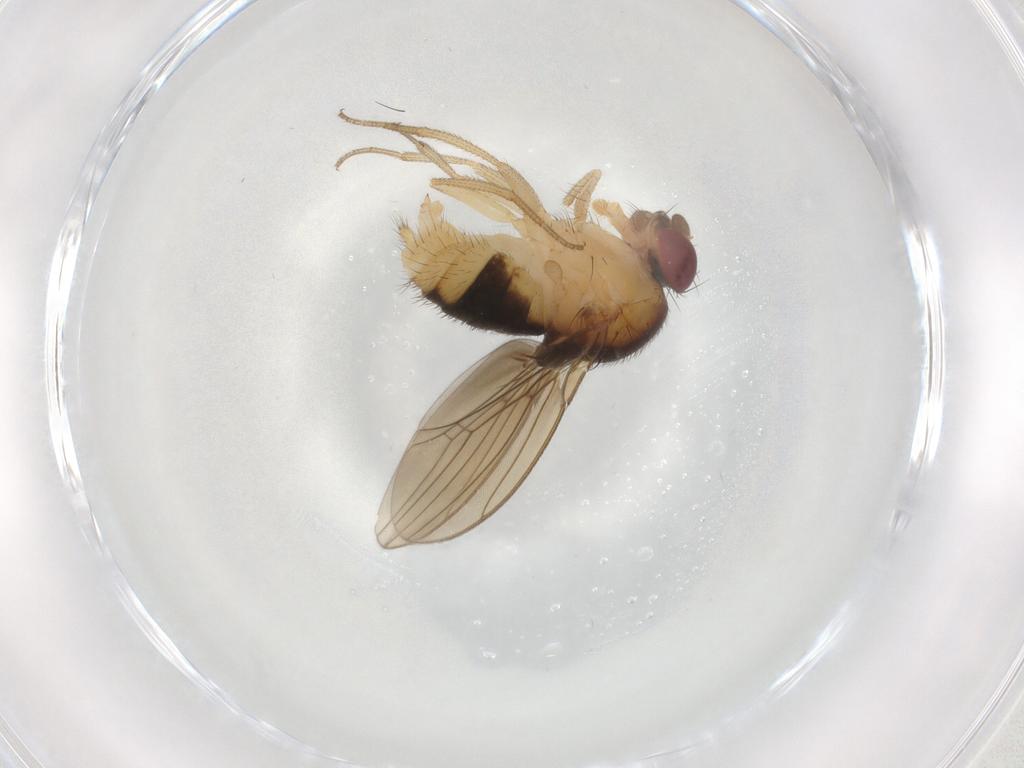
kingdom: Animalia
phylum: Arthropoda
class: Insecta
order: Diptera
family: Drosophilidae
